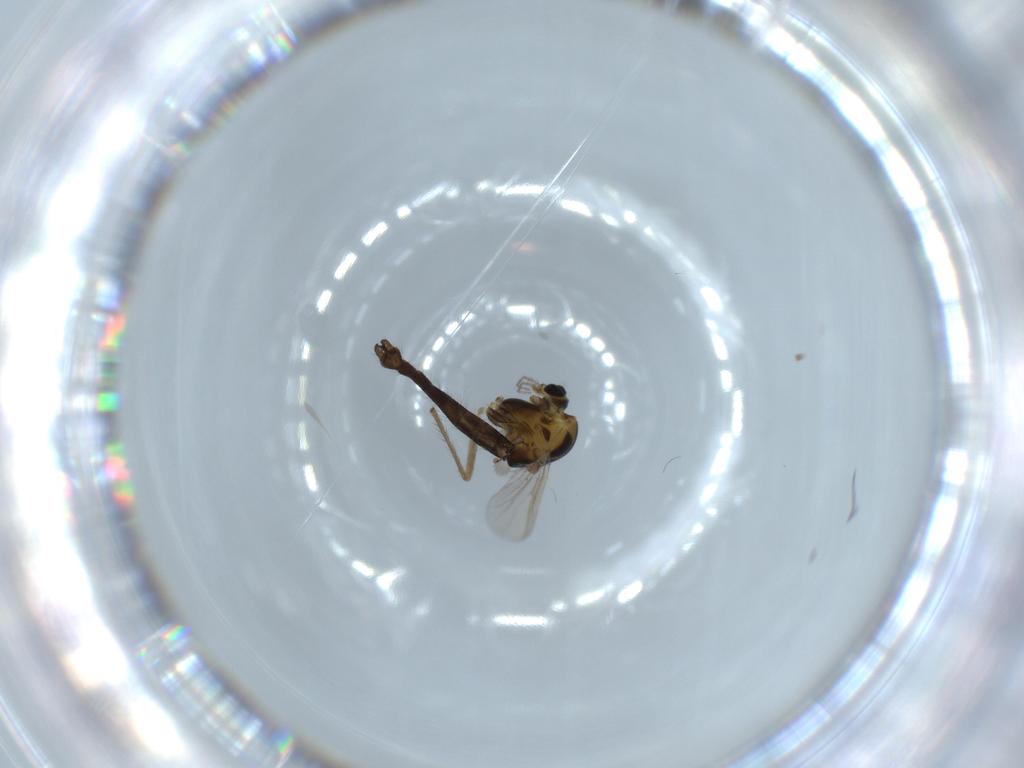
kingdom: Animalia
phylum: Arthropoda
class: Insecta
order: Diptera
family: Chironomidae
